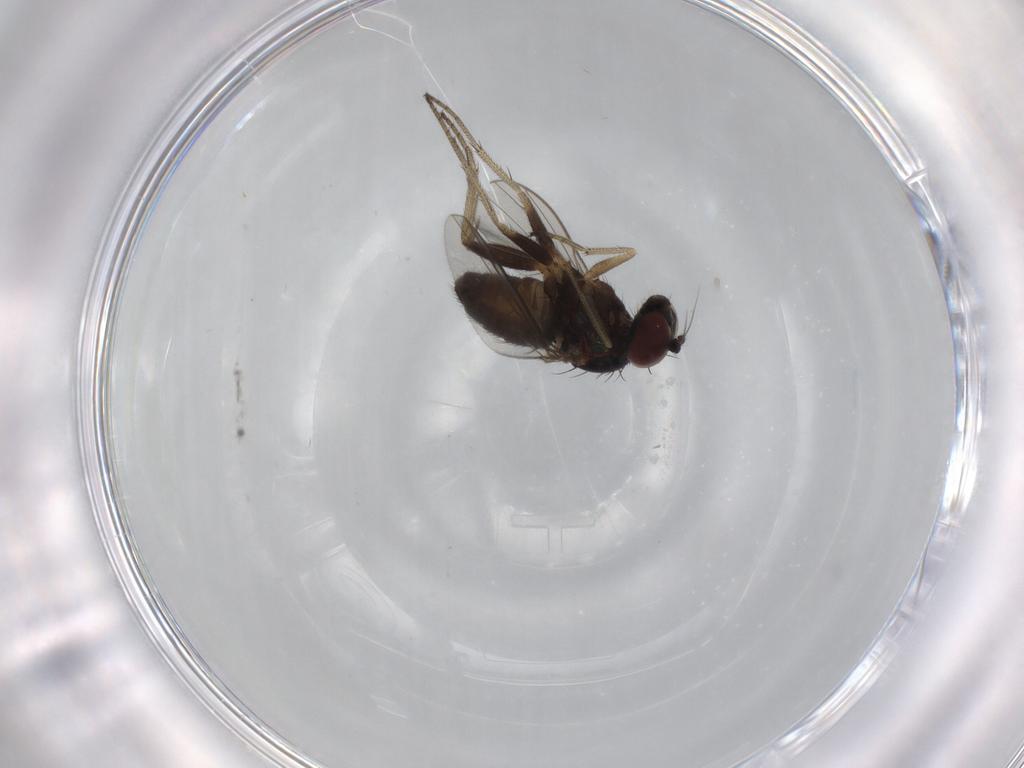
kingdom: Animalia
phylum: Arthropoda
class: Insecta
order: Diptera
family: Dolichopodidae
